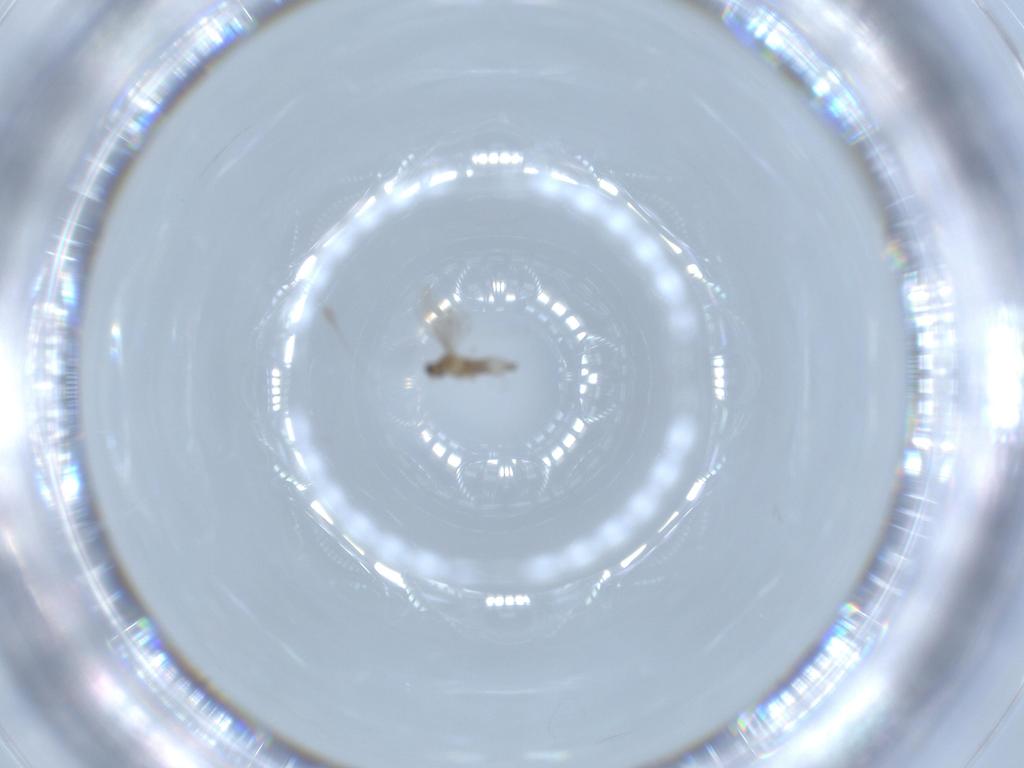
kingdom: Animalia
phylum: Arthropoda
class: Insecta
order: Diptera
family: Cecidomyiidae
